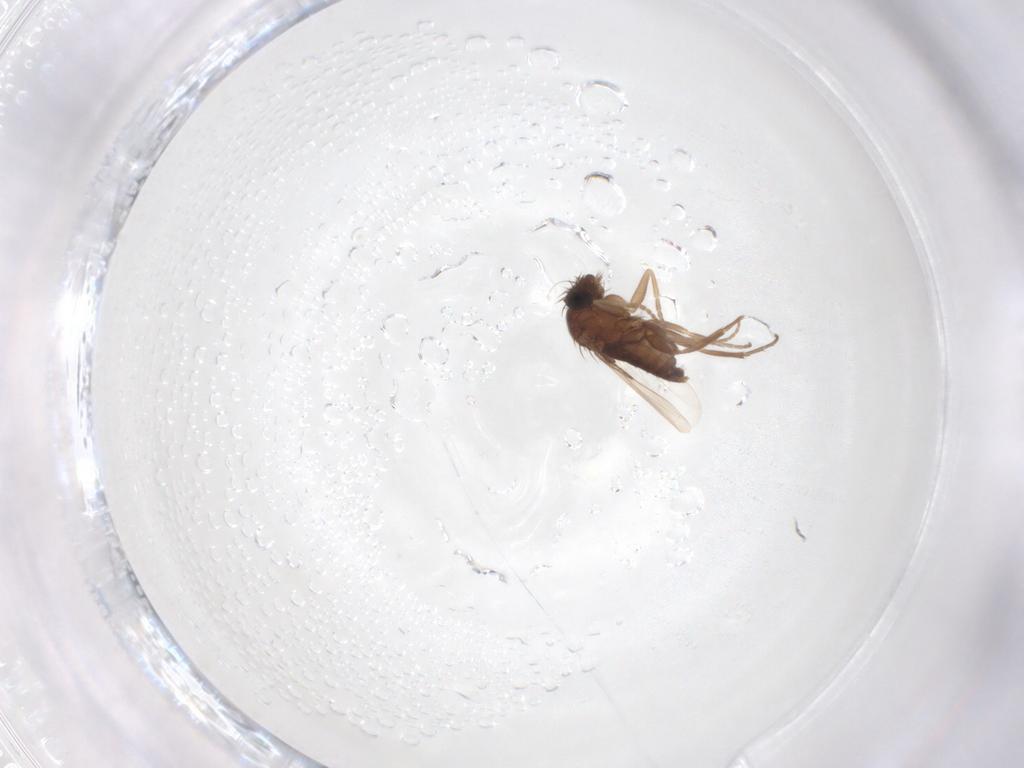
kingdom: Animalia
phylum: Arthropoda
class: Insecta
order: Diptera
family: Phoridae
